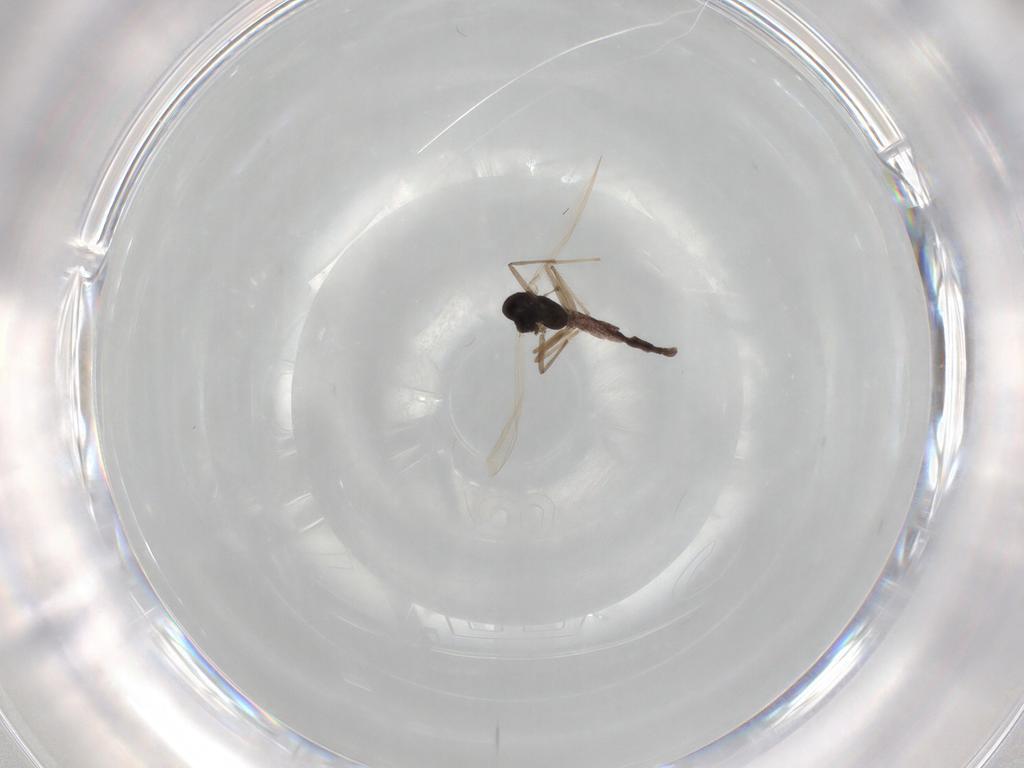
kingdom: Animalia
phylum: Arthropoda
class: Insecta
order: Diptera
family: Chironomidae
